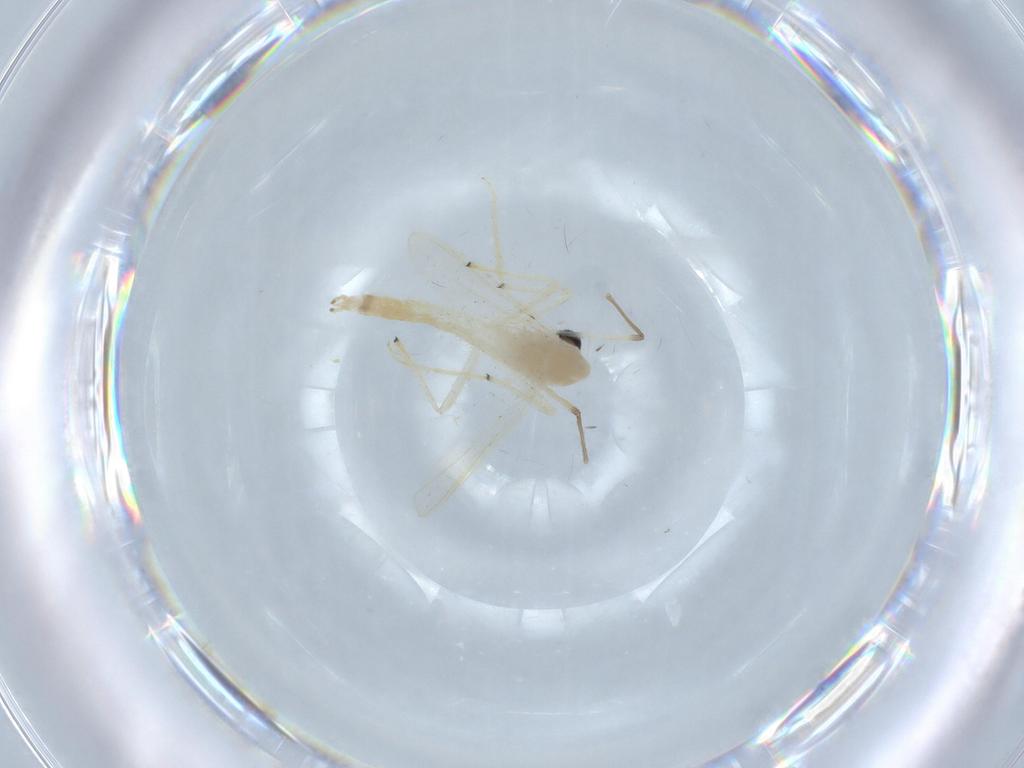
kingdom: Animalia
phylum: Arthropoda
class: Insecta
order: Diptera
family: Chironomidae
